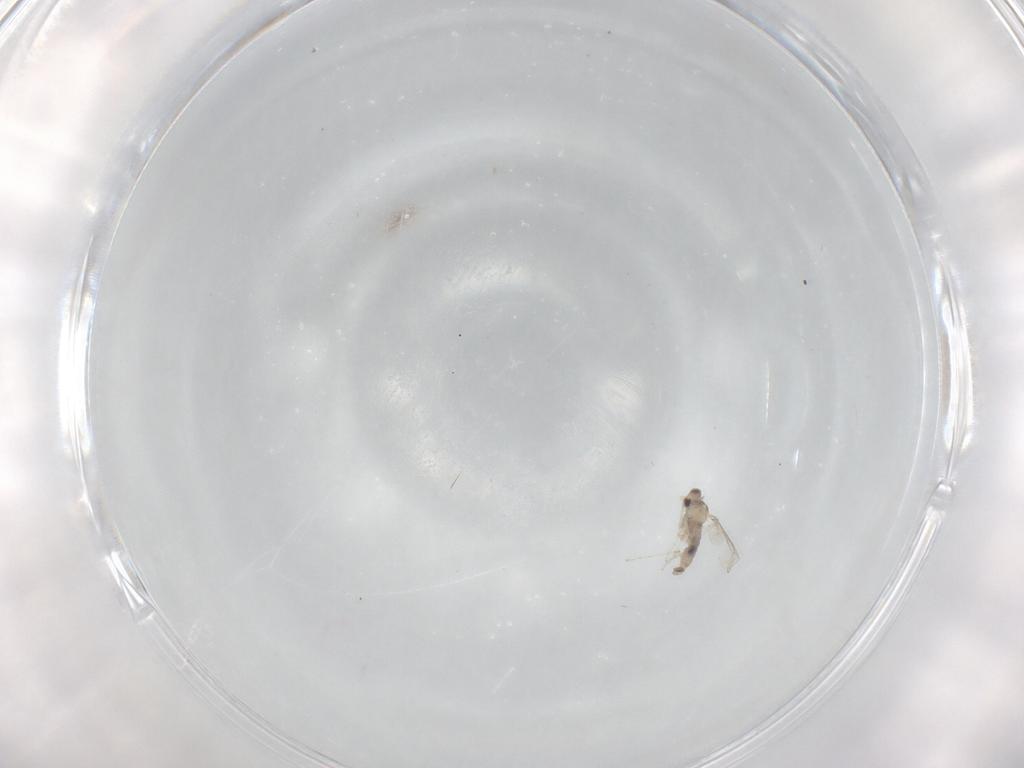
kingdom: Animalia
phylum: Arthropoda
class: Insecta
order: Diptera
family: Cecidomyiidae
